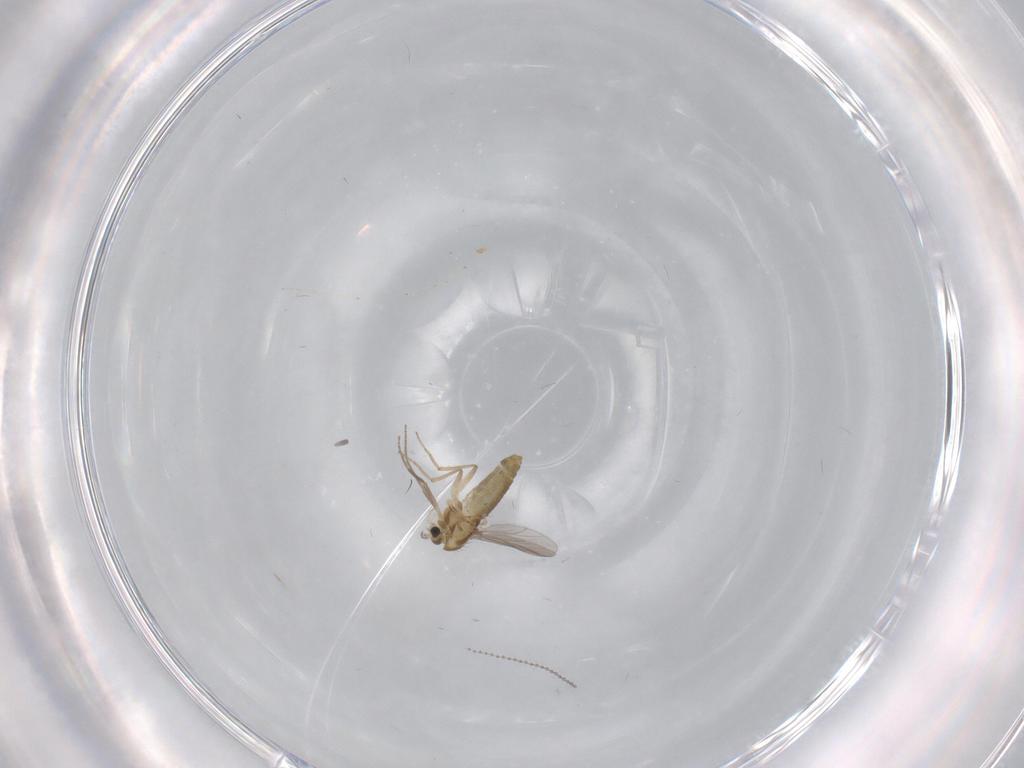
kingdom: Animalia
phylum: Arthropoda
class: Insecta
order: Diptera
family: Chironomidae
